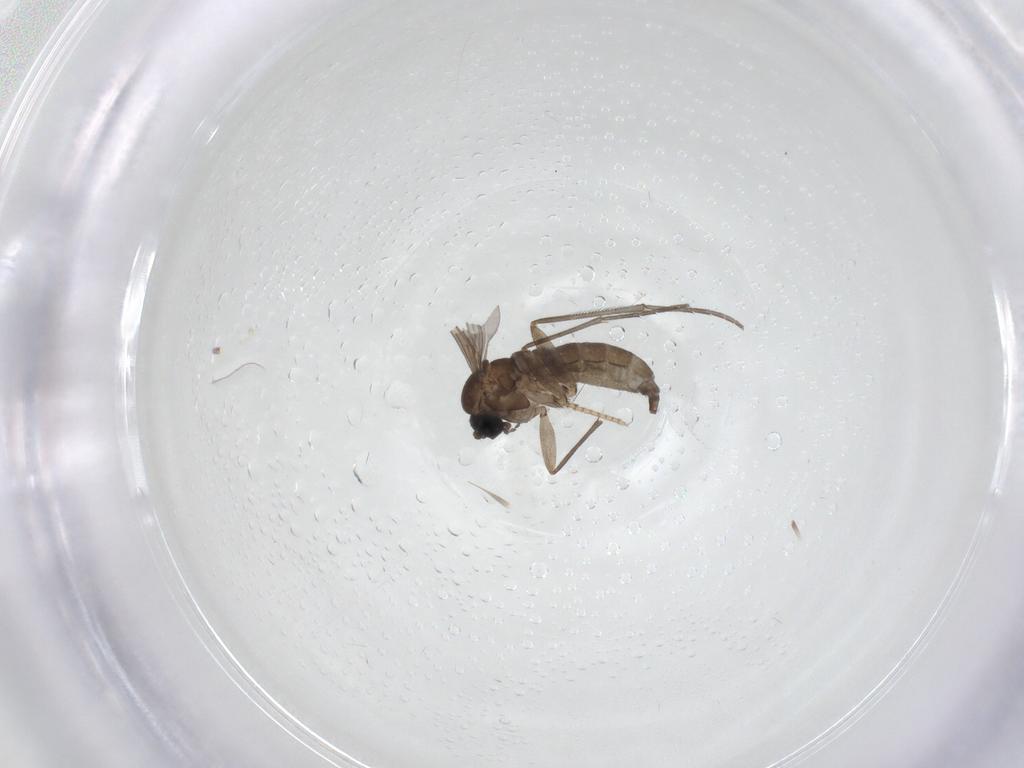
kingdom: Animalia
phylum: Arthropoda
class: Insecta
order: Diptera
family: Sciaridae
